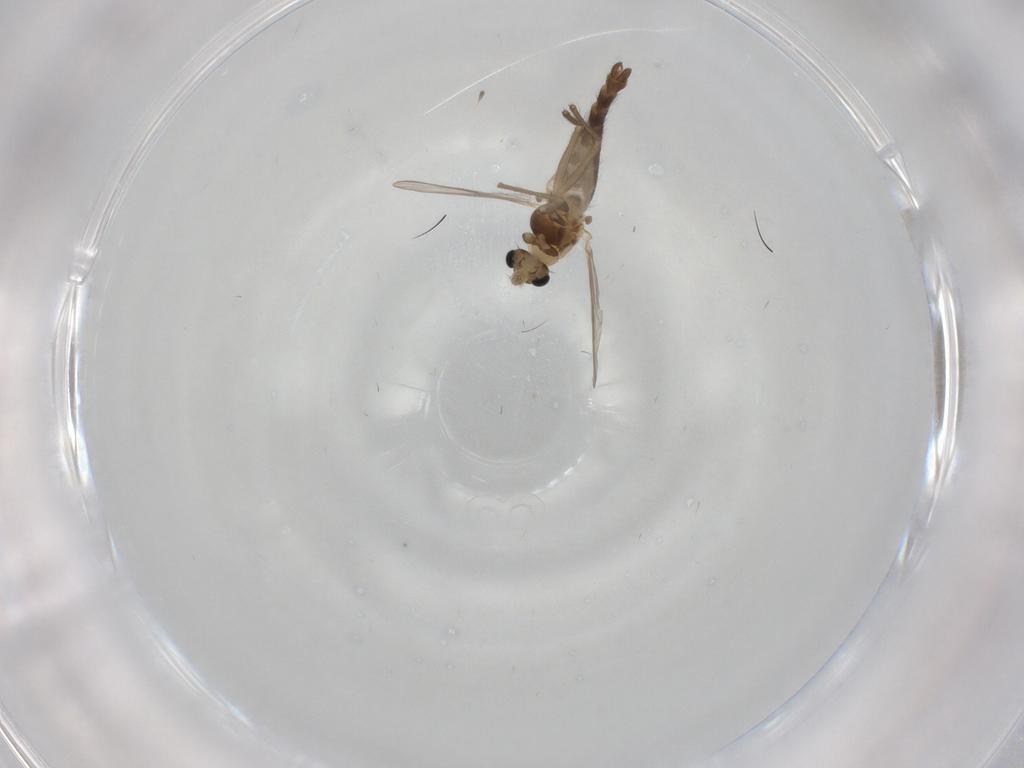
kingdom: Animalia
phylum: Arthropoda
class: Insecta
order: Diptera
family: Chironomidae
